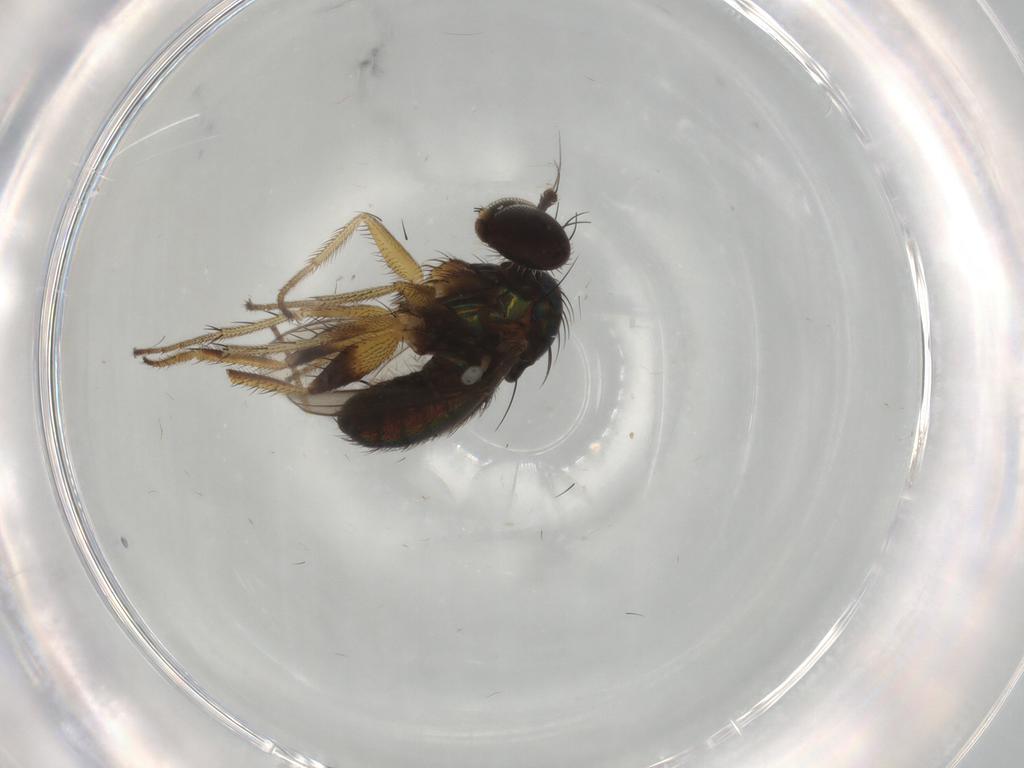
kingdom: Animalia
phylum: Arthropoda
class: Insecta
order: Diptera
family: Dolichopodidae
